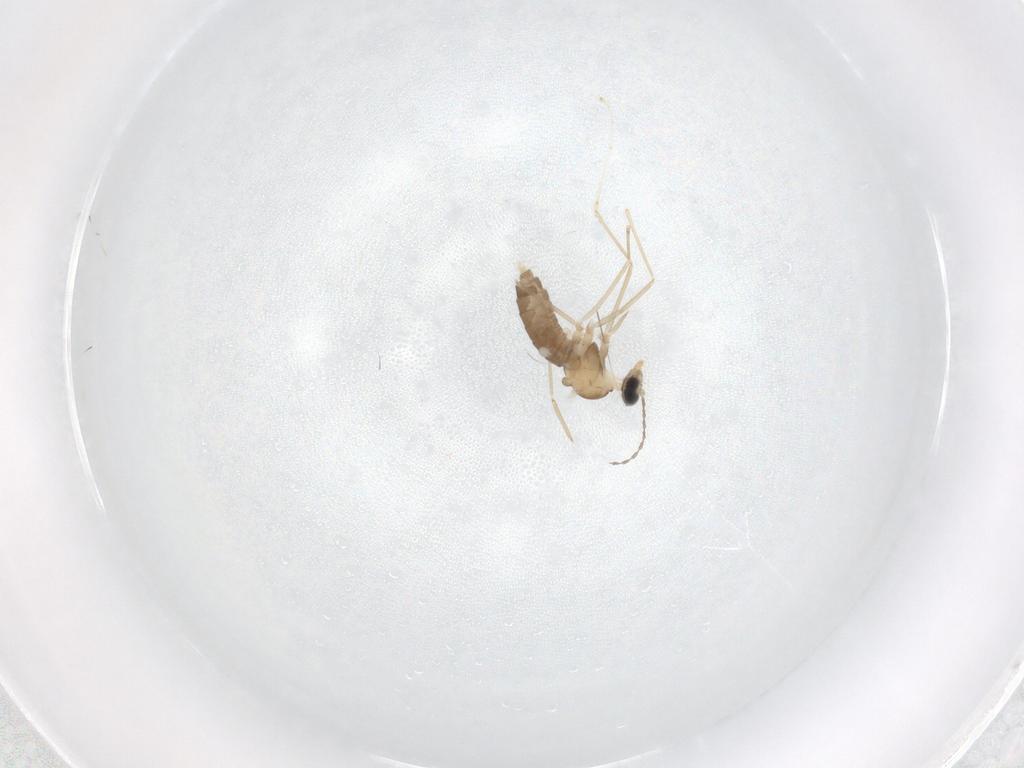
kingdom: Animalia
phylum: Arthropoda
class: Insecta
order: Diptera
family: Cecidomyiidae
